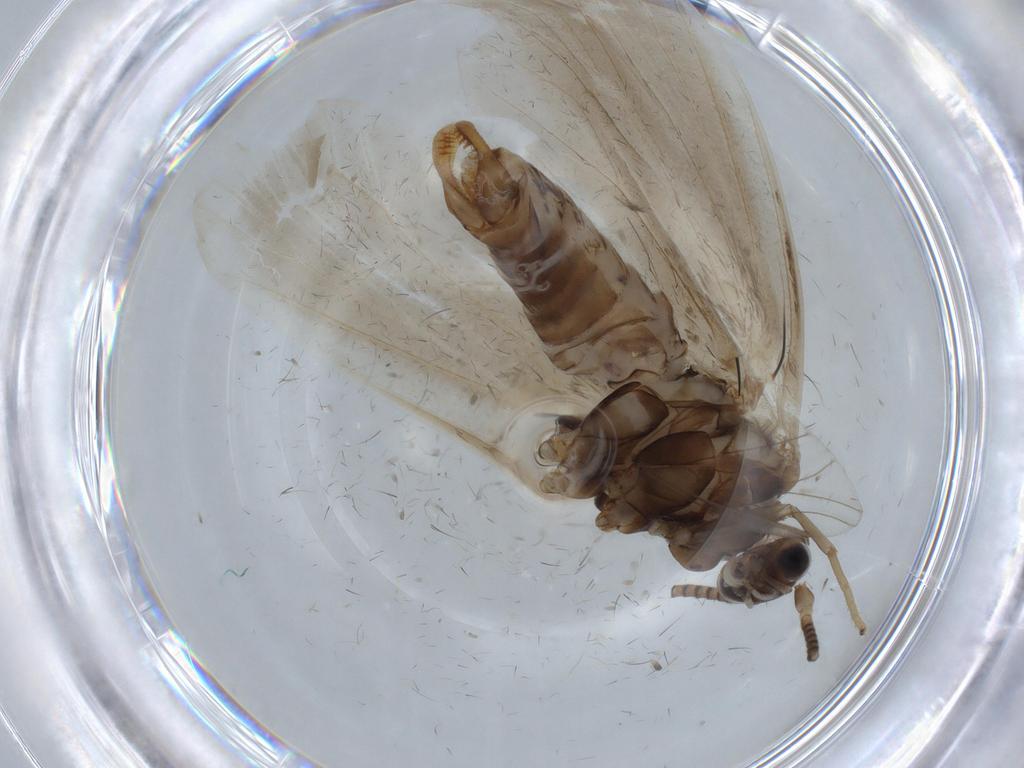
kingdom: Animalia
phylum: Arthropoda
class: Insecta
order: Lepidoptera
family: Incurvariidae
